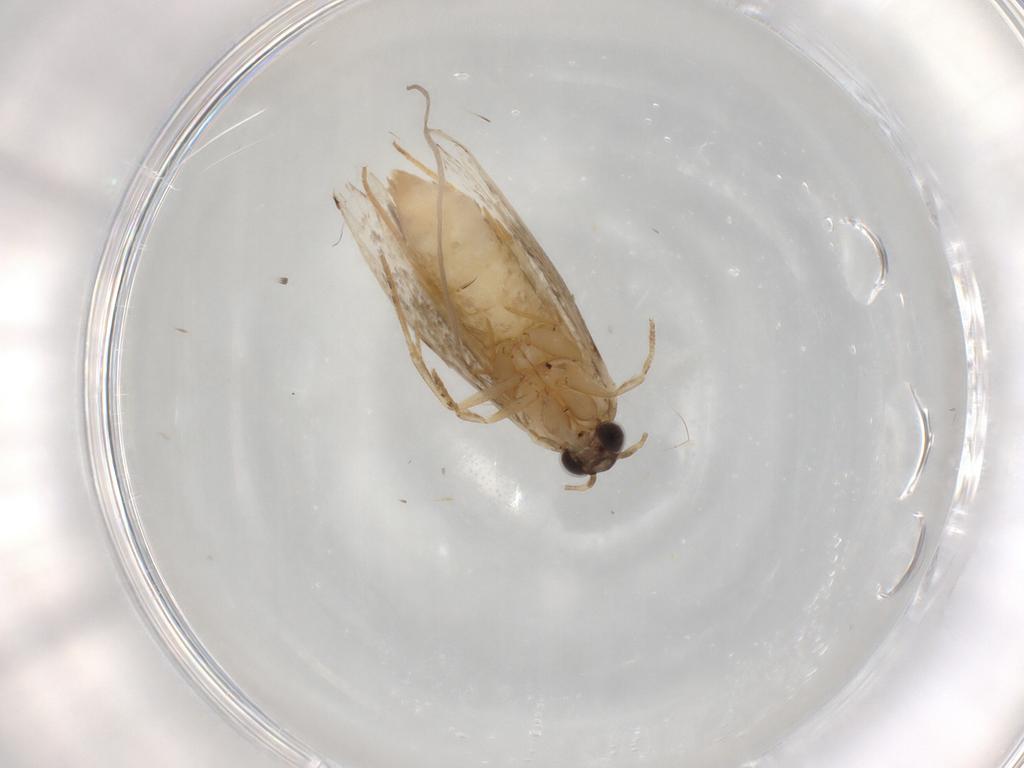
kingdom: Animalia
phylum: Arthropoda
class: Insecta
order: Lepidoptera
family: Tineidae
